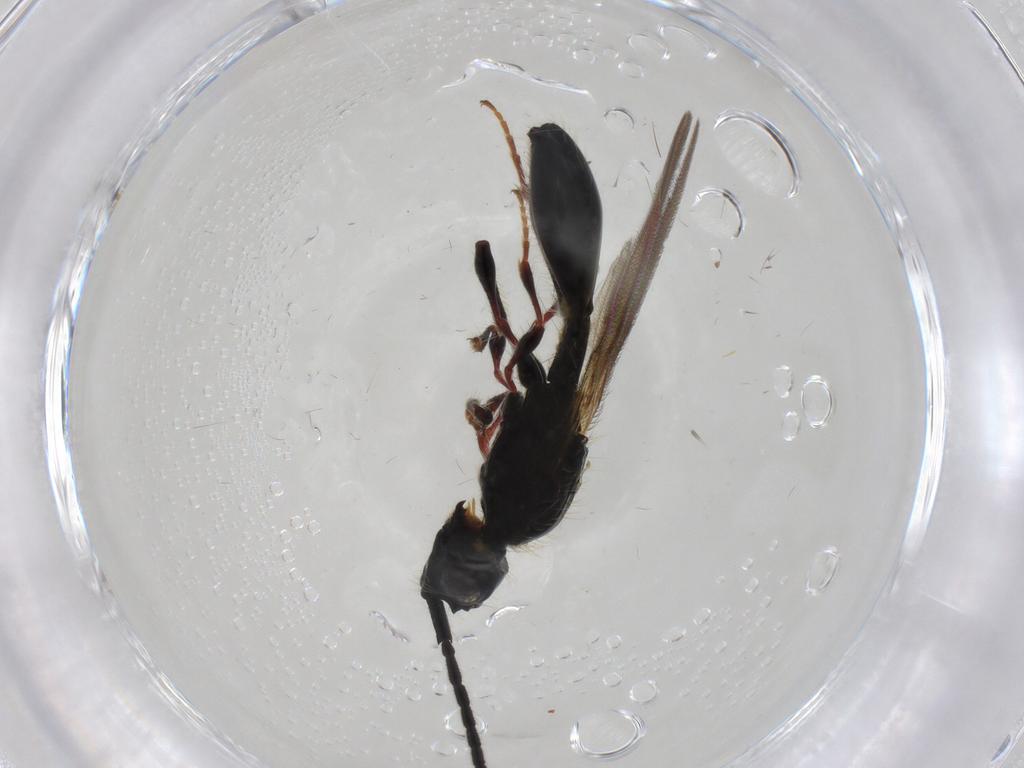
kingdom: Animalia
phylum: Arthropoda
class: Insecta
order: Hymenoptera
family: Diapriidae
